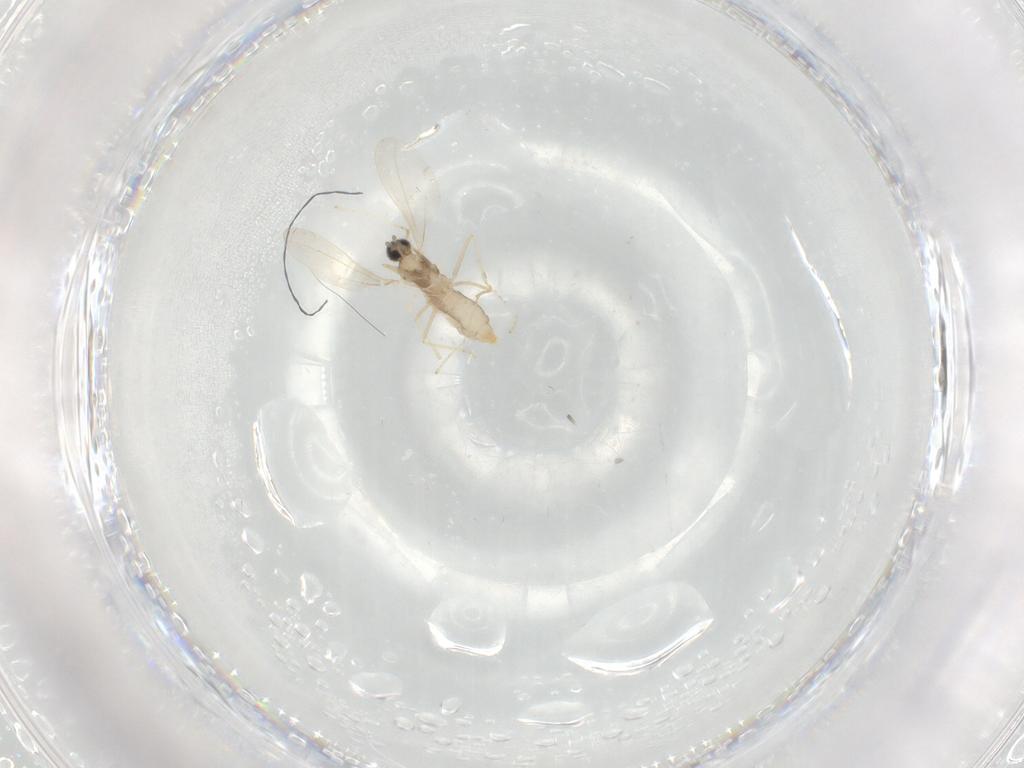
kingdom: Animalia
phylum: Arthropoda
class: Insecta
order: Diptera
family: Cecidomyiidae
